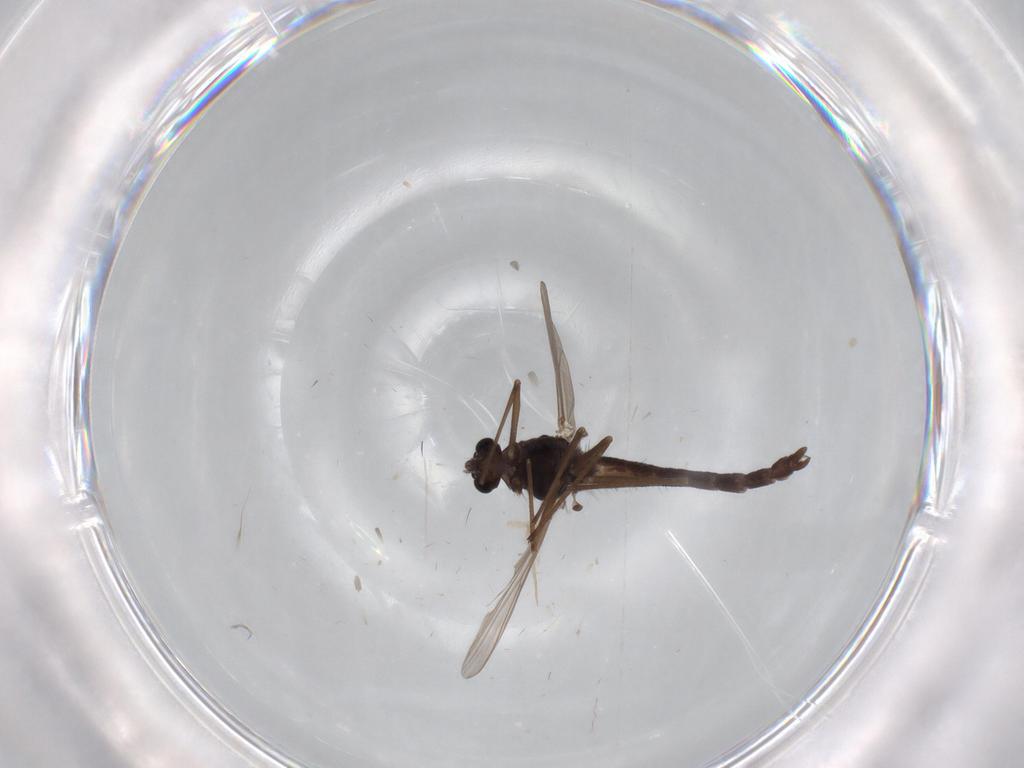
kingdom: Animalia
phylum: Arthropoda
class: Insecta
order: Diptera
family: Chironomidae
